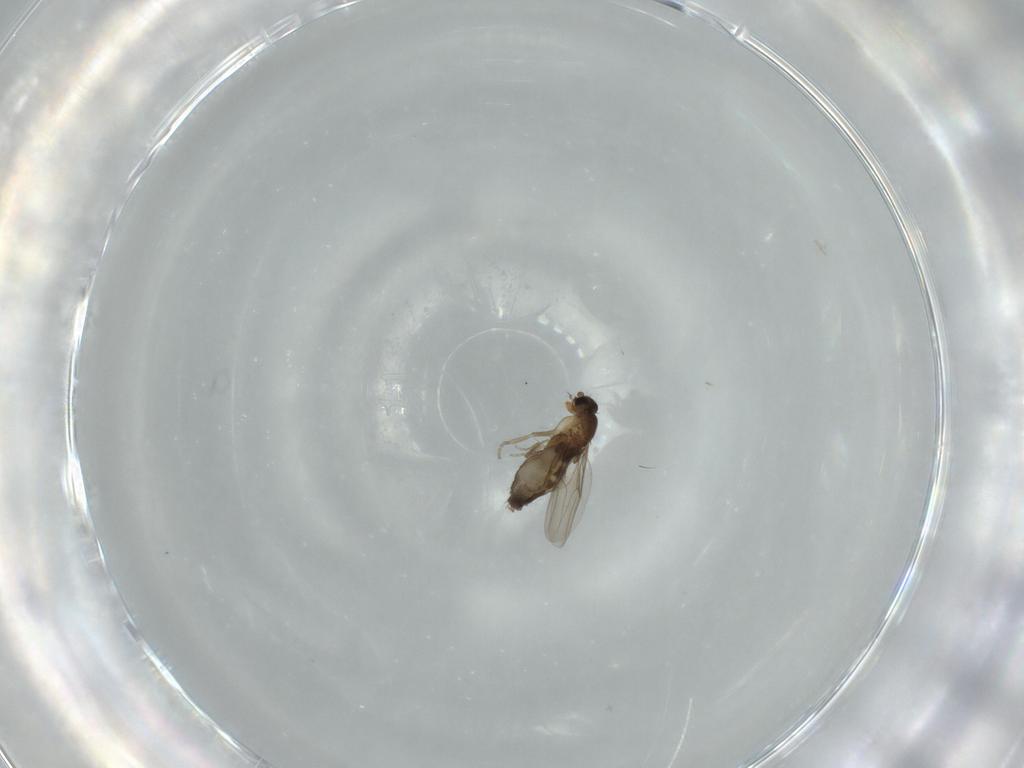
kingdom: Animalia
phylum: Arthropoda
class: Insecta
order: Diptera
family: Phoridae
